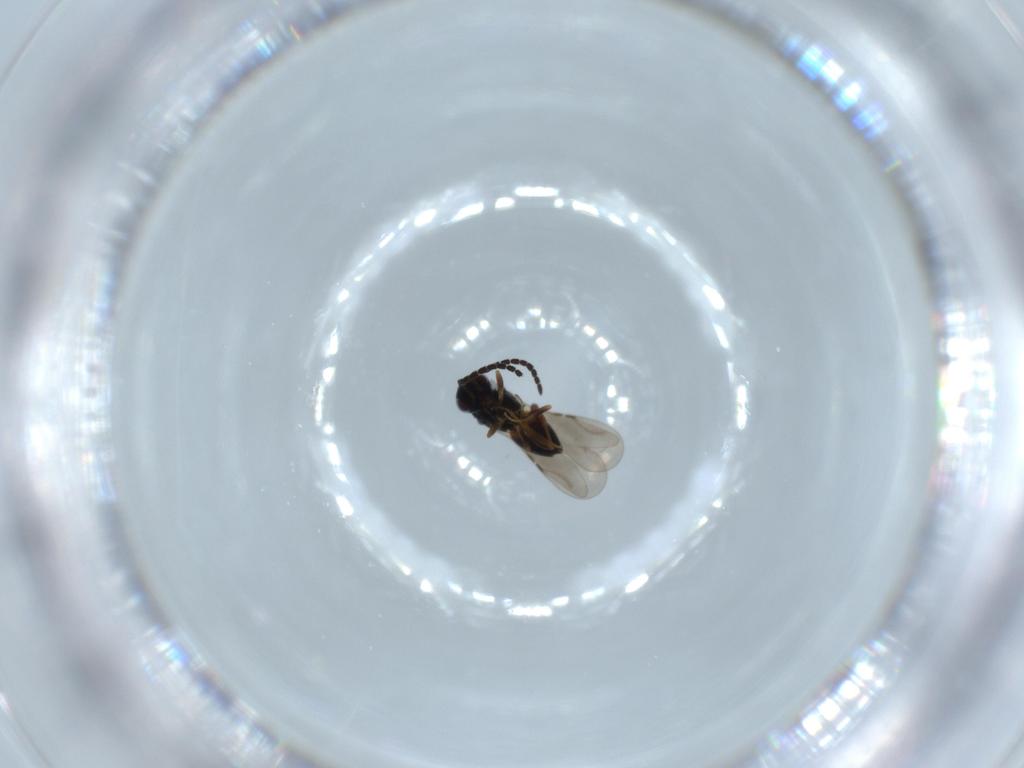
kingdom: Animalia
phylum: Arthropoda
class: Insecta
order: Hymenoptera
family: Ceraphronidae
